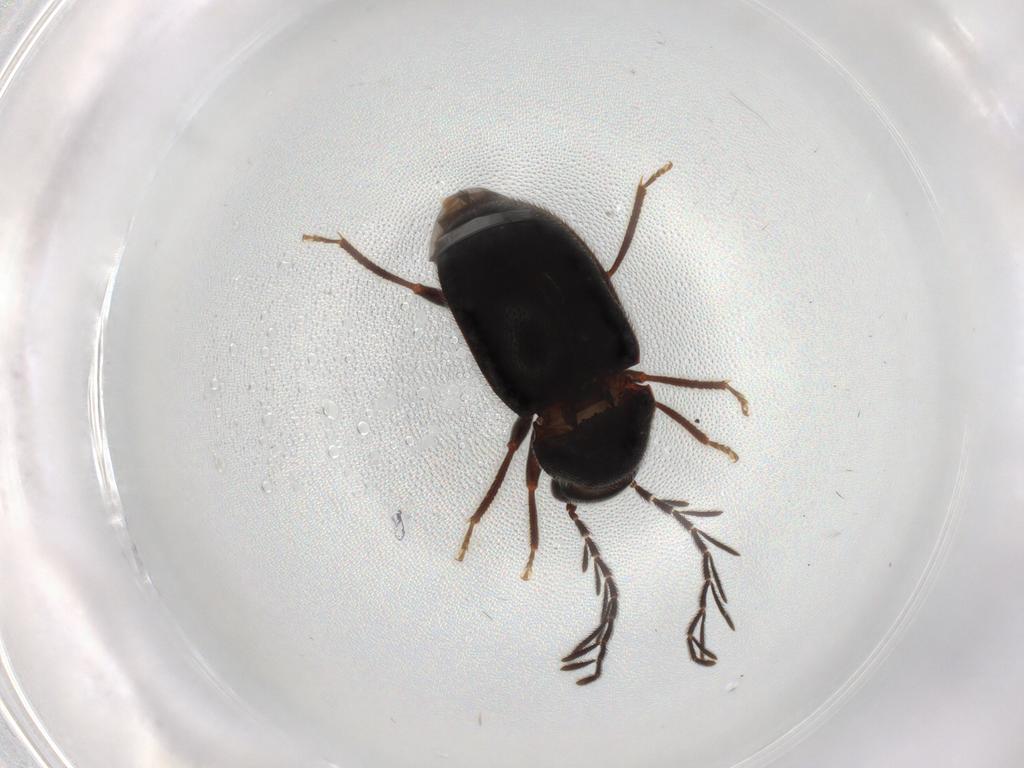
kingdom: Animalia
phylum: Arthropoda
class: Insecta
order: Coleoptera
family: Ptilodactylidae
